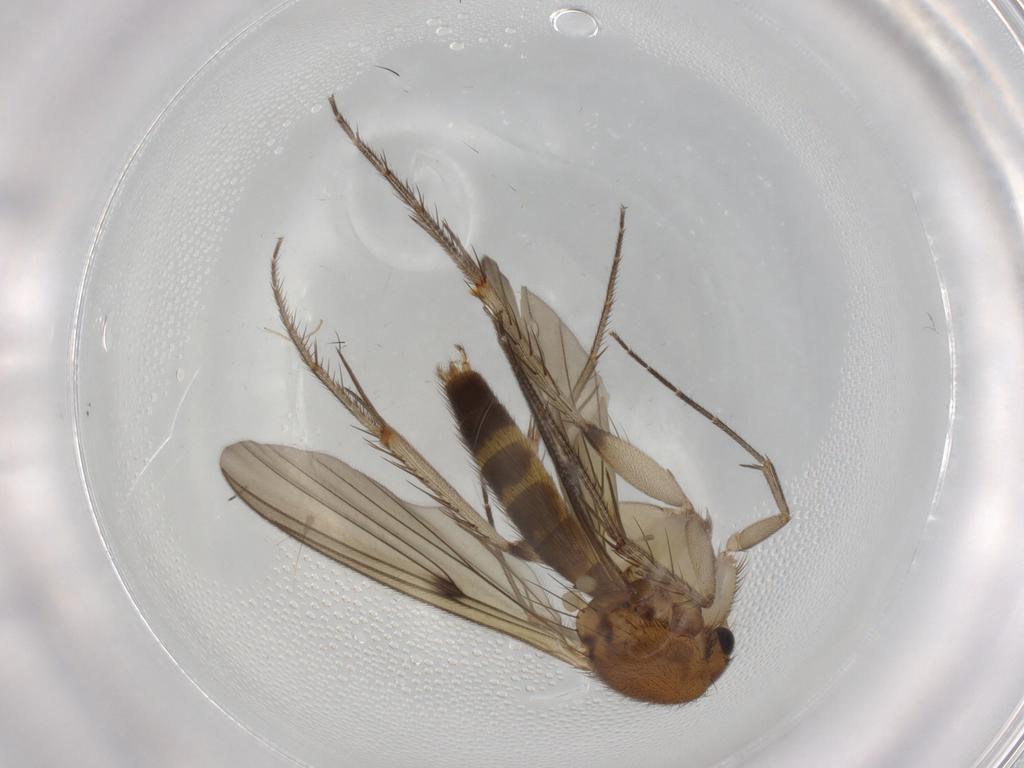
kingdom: Animalia
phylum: Arthropoda
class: Insecta
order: Diptera
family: Mycetophilidae
